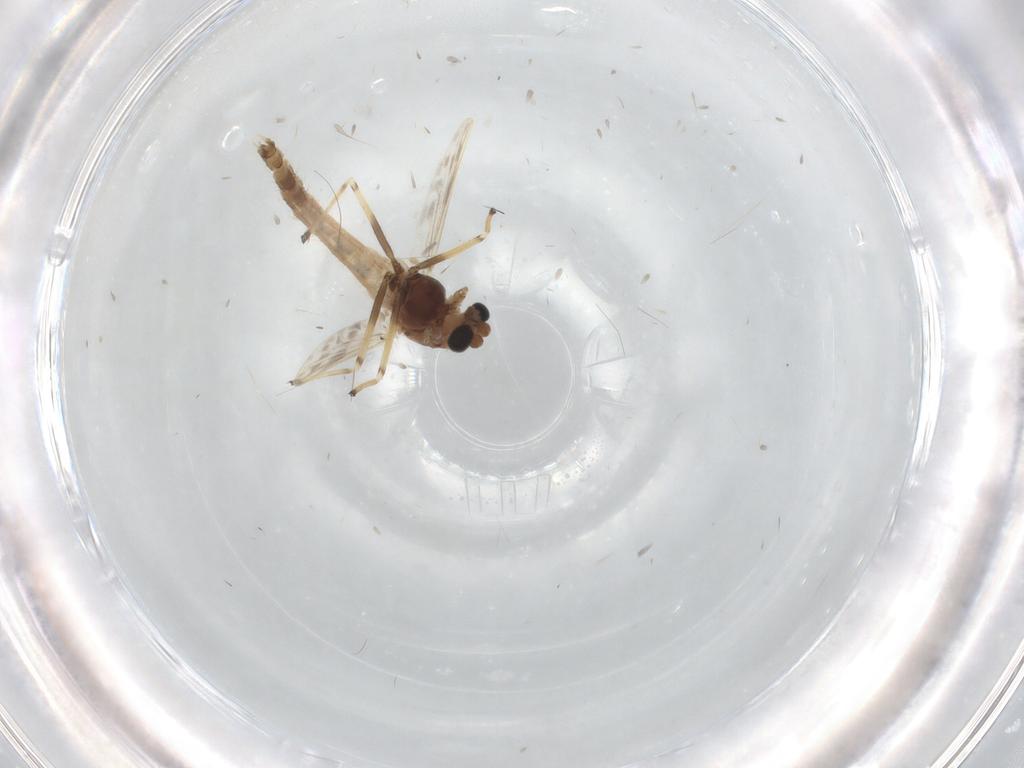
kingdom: Animalia
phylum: Arthropoda
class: Insecta
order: Diptera
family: Chironomidae
